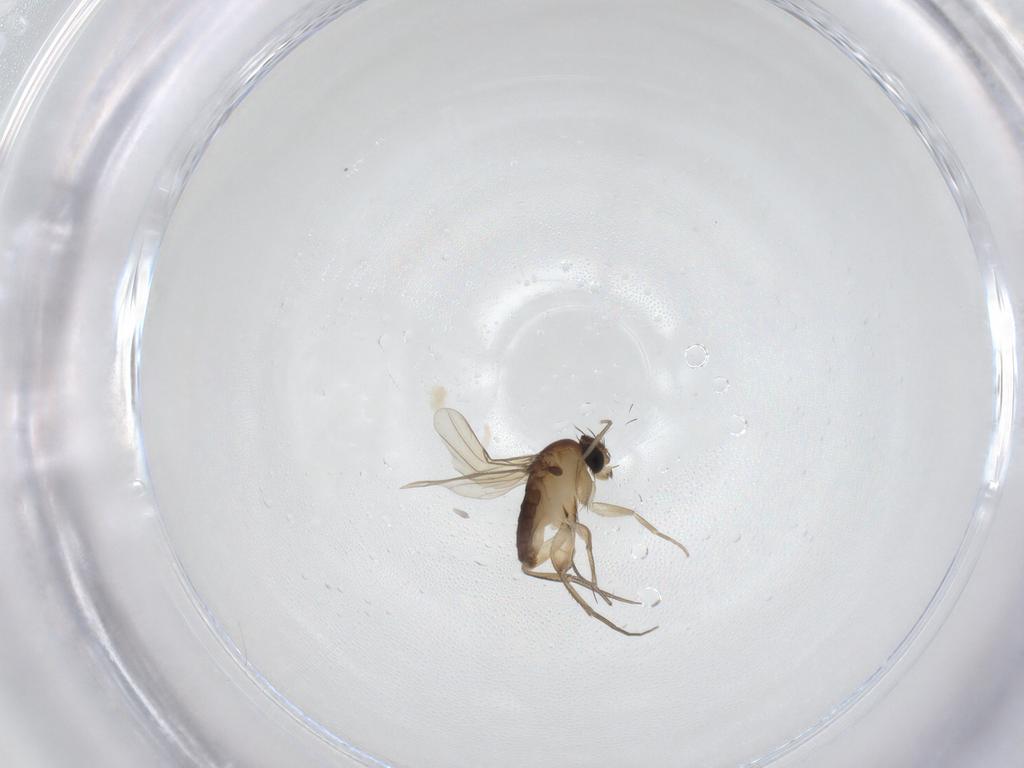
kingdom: Animalia
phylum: Arthropoda
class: Insecta
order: Diptera
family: Phoridae
